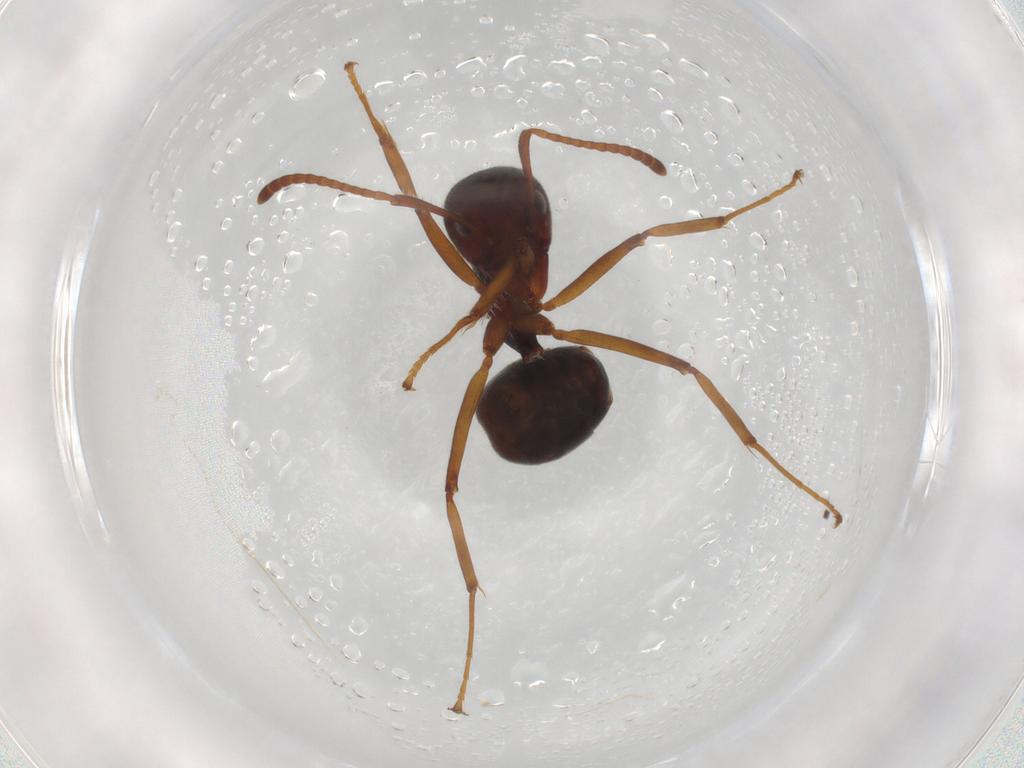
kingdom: Animalia
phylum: Arthropoda
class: Insecta
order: Hymenoptera
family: Formicidae
